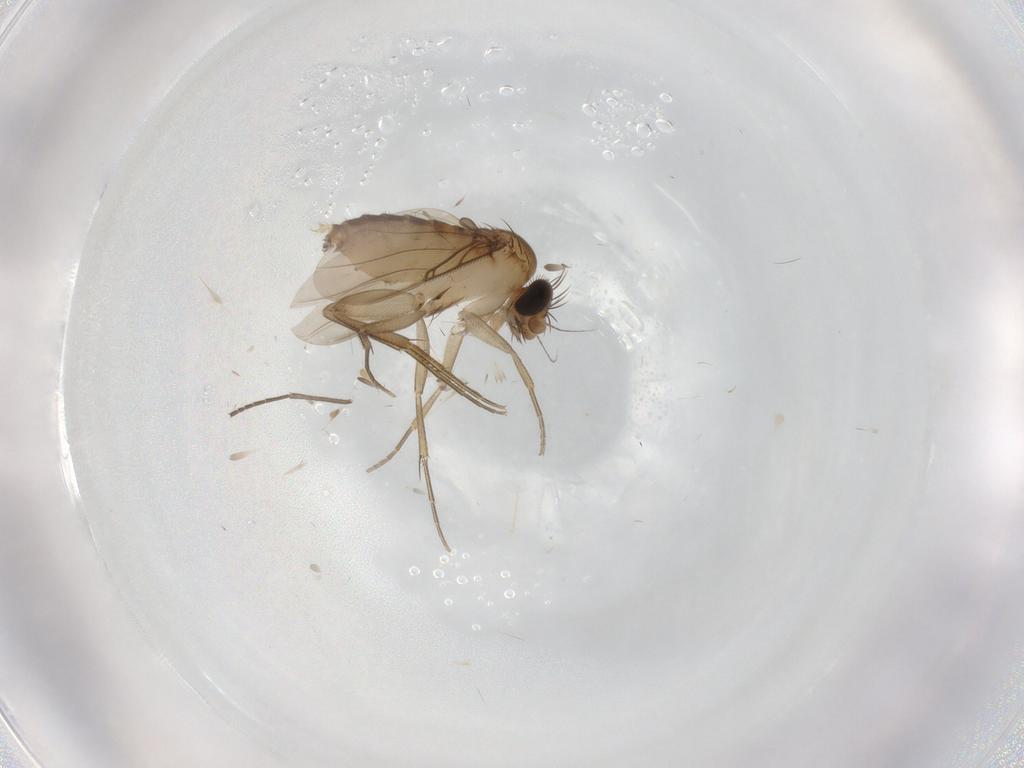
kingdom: Animalia
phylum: Arthropoda
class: Insecta
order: Diptera
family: Phoridae
